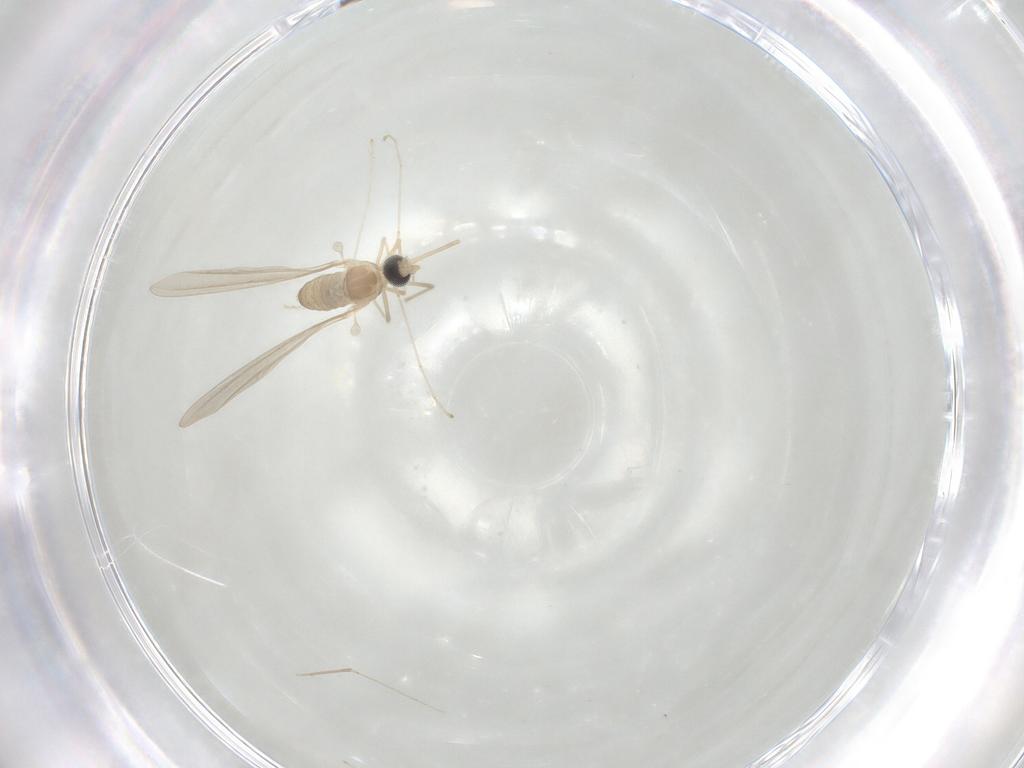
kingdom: Animalia
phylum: Arthropoda
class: Insecta
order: Diptera
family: Cecidomyiidae
